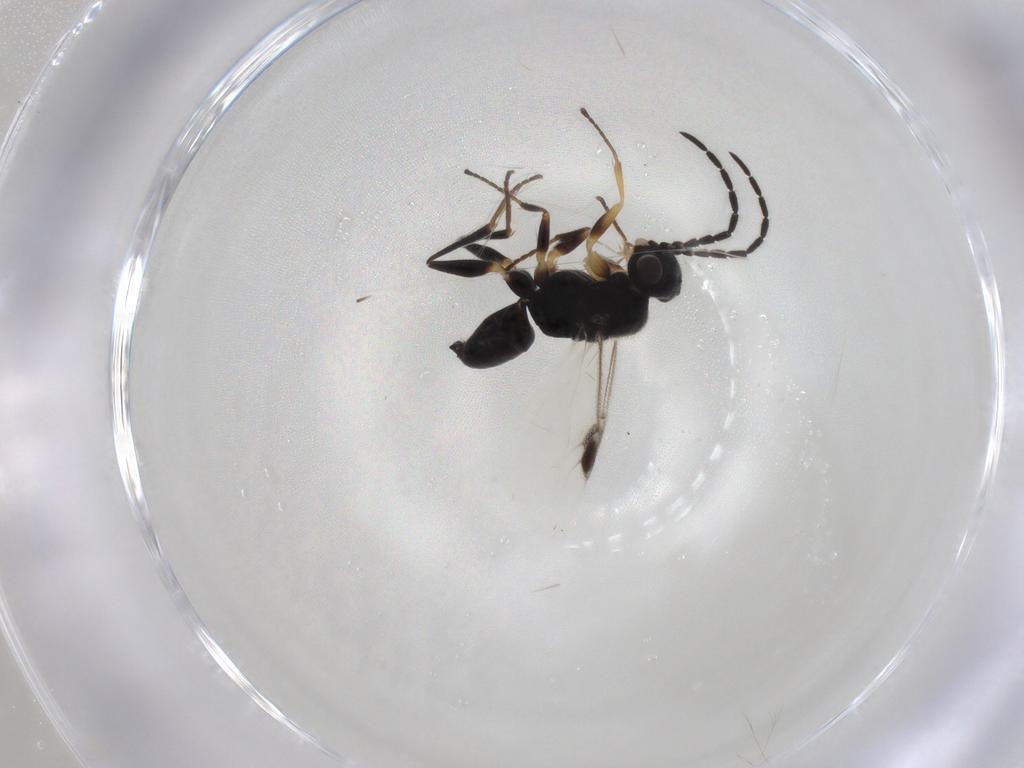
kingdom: Animalia
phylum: Arthropoda
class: Insecta
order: Hymenoptera
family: Dryinidae
